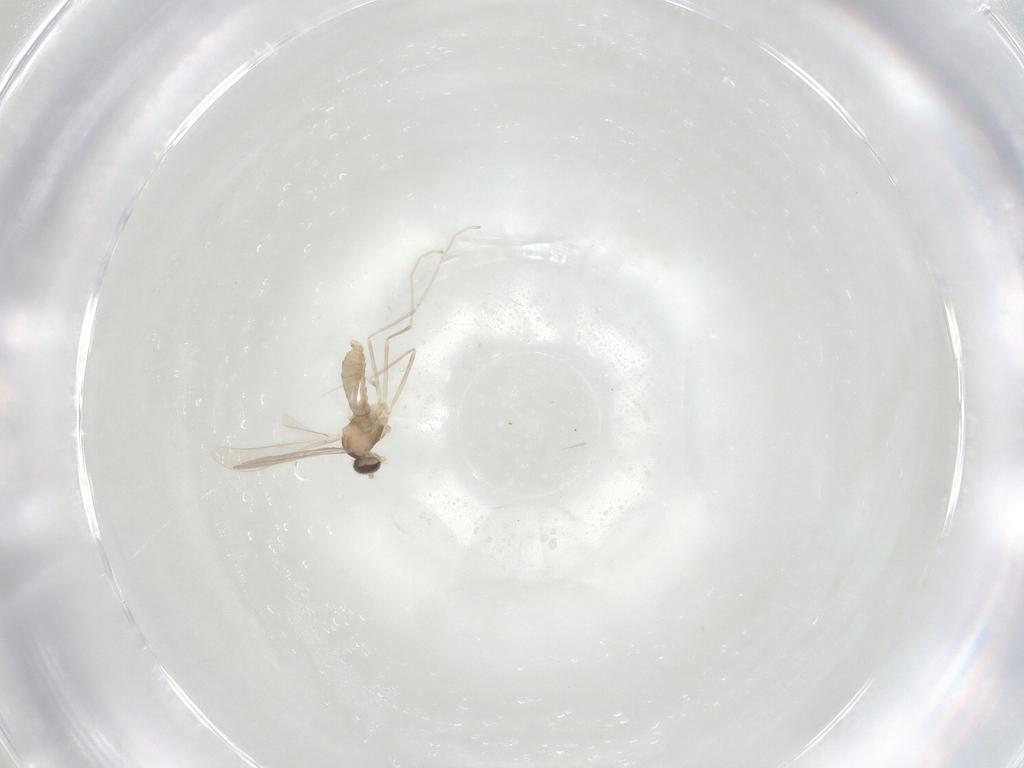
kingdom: Animalia
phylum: Arthropoda
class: Insecta
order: Diptera
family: Cecidomyiidae
